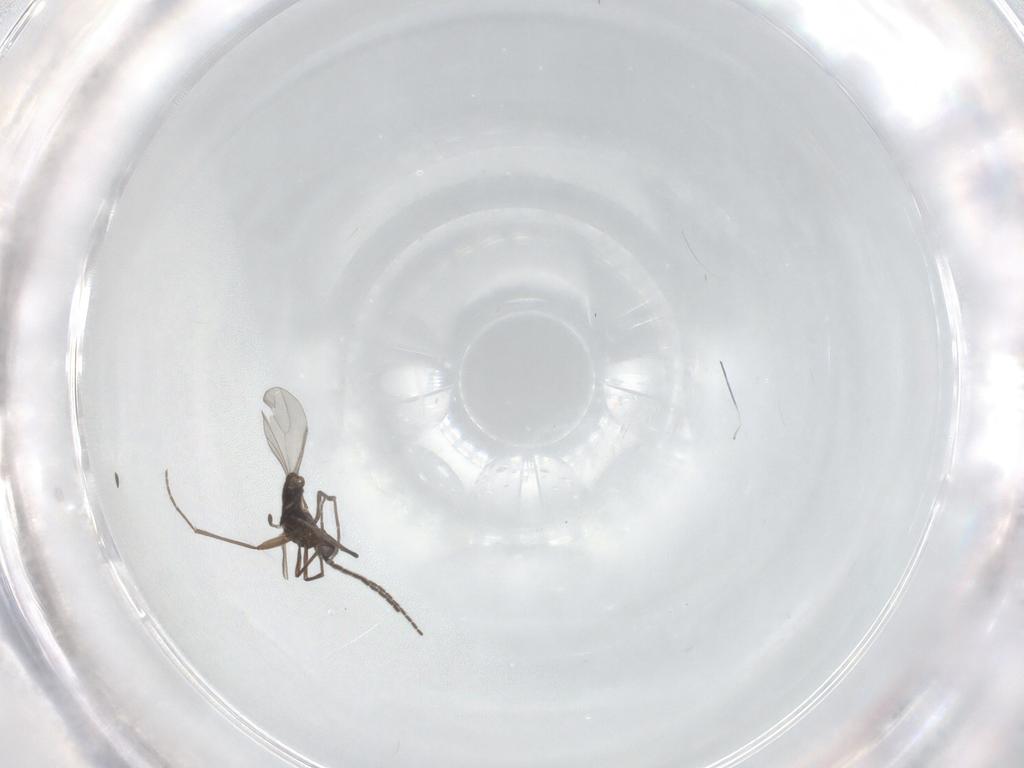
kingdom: Animalia
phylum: Arthropoda
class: Insecta
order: Diptera
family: Sciaridae
